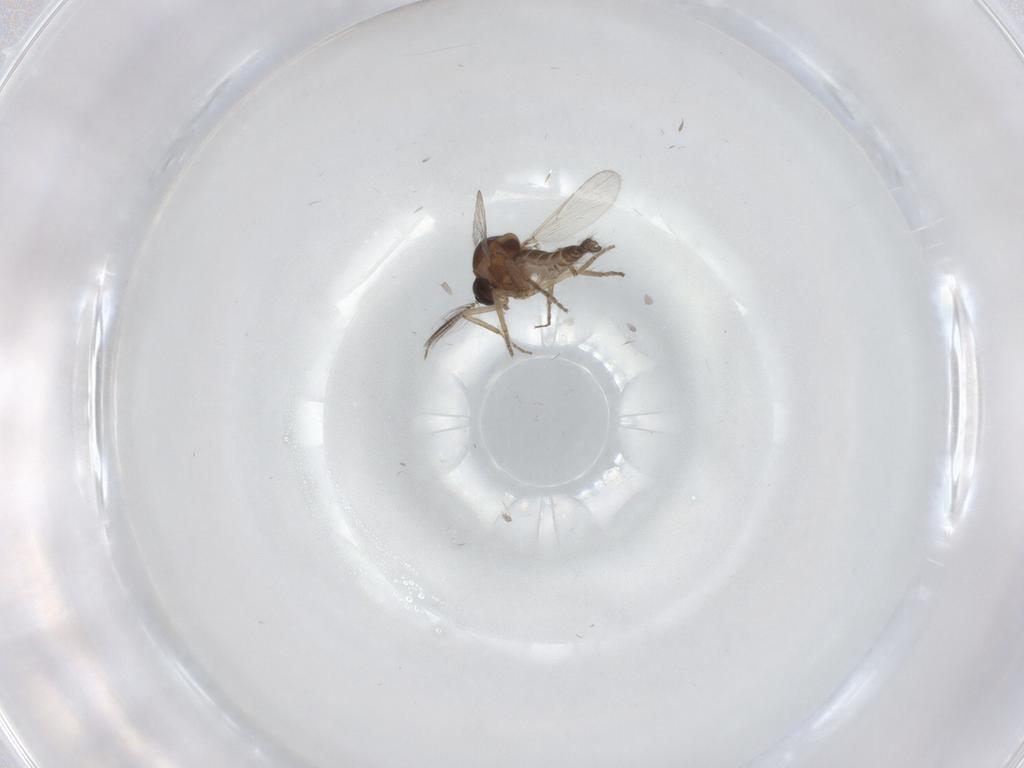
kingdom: Animalia
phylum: Arthropoda
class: Insecta
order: Diptera
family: Ceratopogonidae
